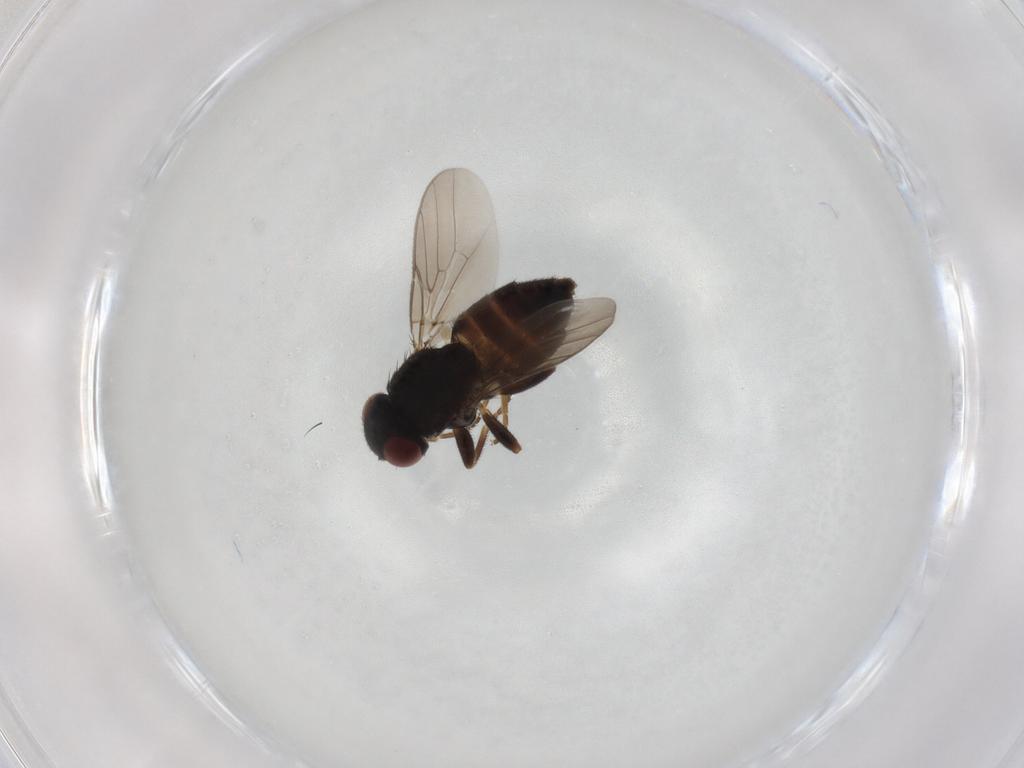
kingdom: Animalia
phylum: Arthropoda
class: Insecta
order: Diptera
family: Chloropidae
